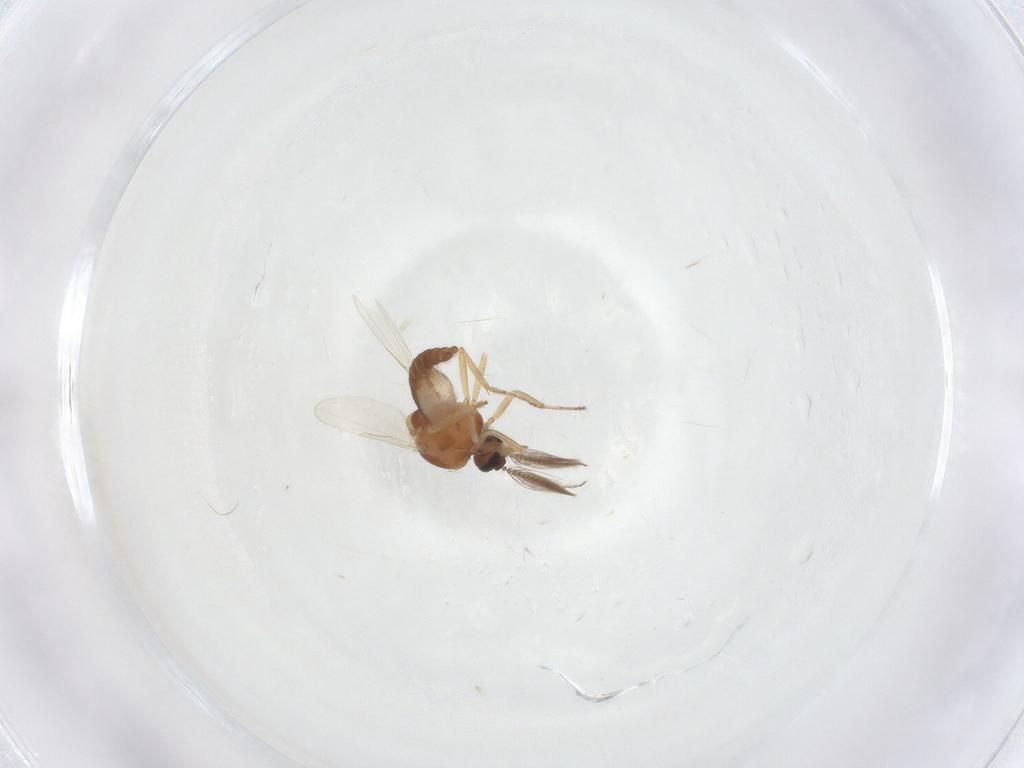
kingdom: Animalia
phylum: Arthropoda
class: Insecta
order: Diptera
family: Ceratopogonidae
